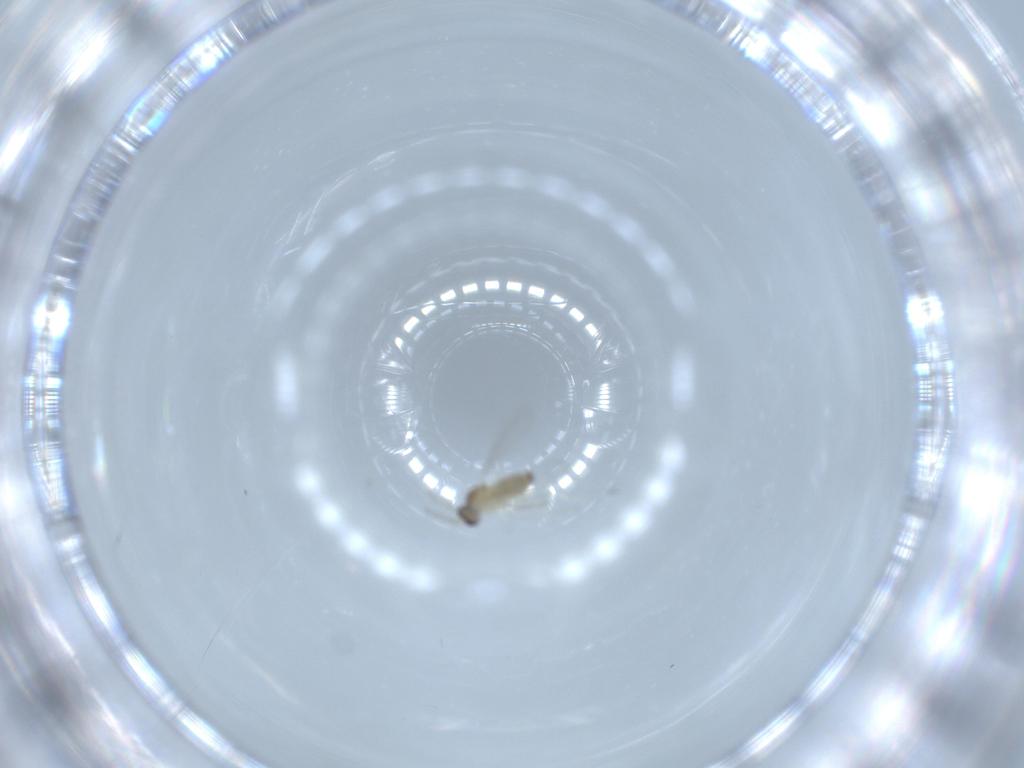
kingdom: Animalia
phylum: Arthropoda
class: Insecta
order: Diptera
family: Cecidomyiidae
